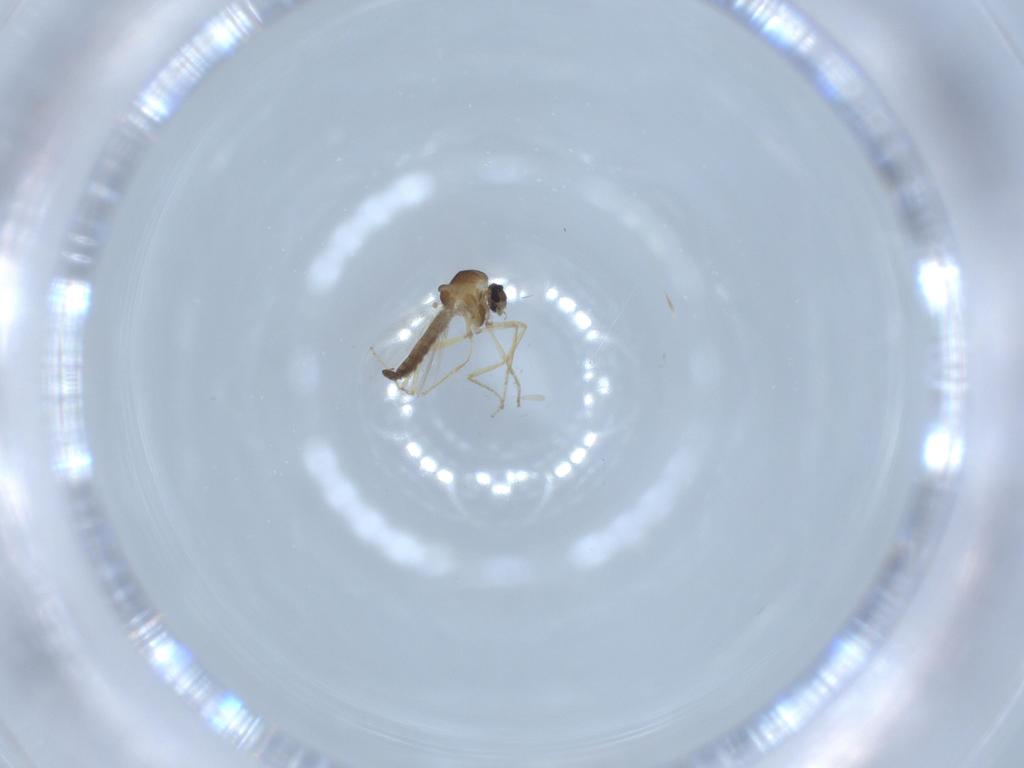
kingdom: Animalia
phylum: Arthropoda
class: Insecta
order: Diptera
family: Ceratopogonidae
